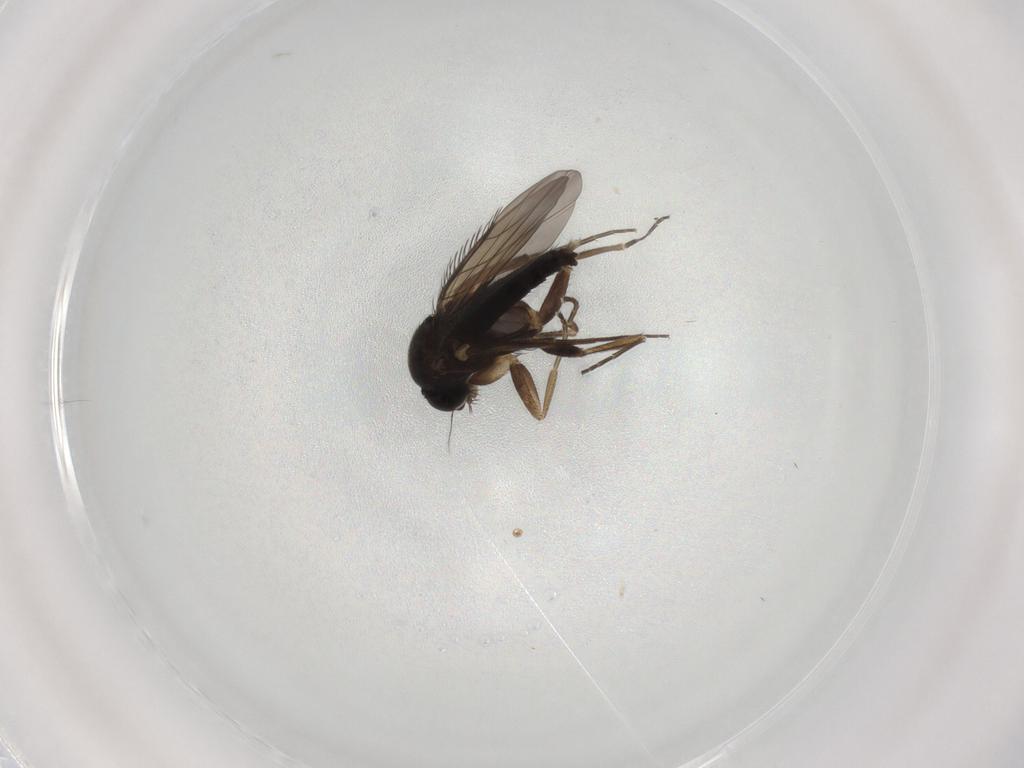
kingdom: Animalia
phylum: Arthropoda
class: Insecta
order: Diptera
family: Phoridae
